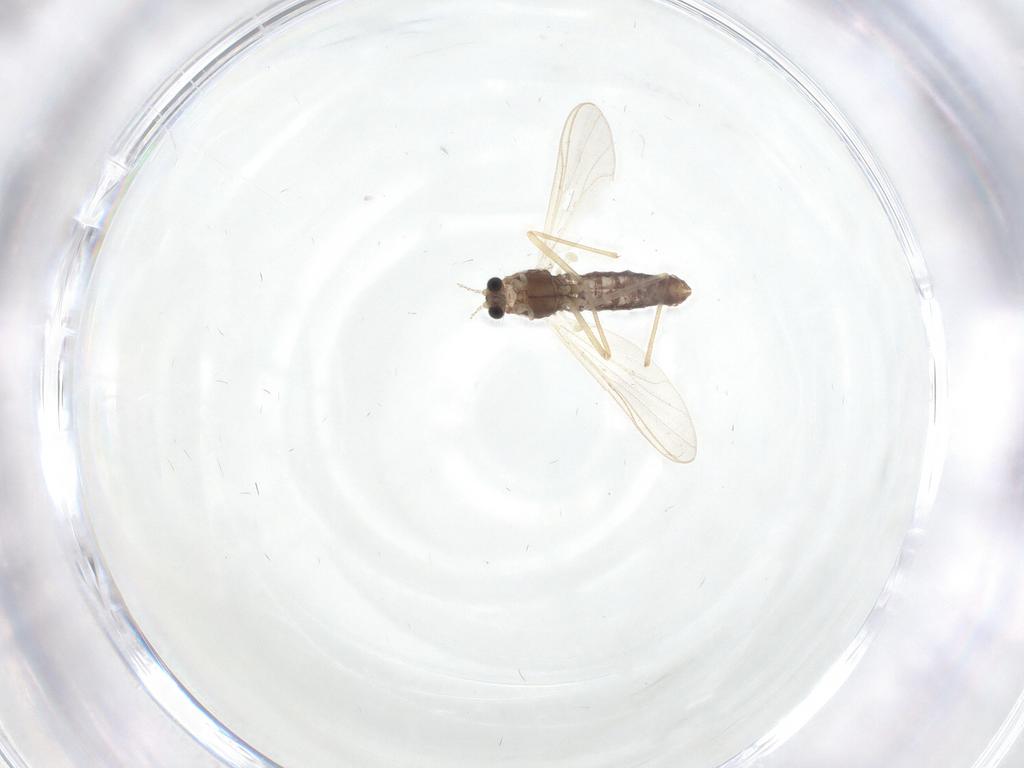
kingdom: Animalia
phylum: Arthropoda
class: Insecta
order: Diptera
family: Chironomidae
